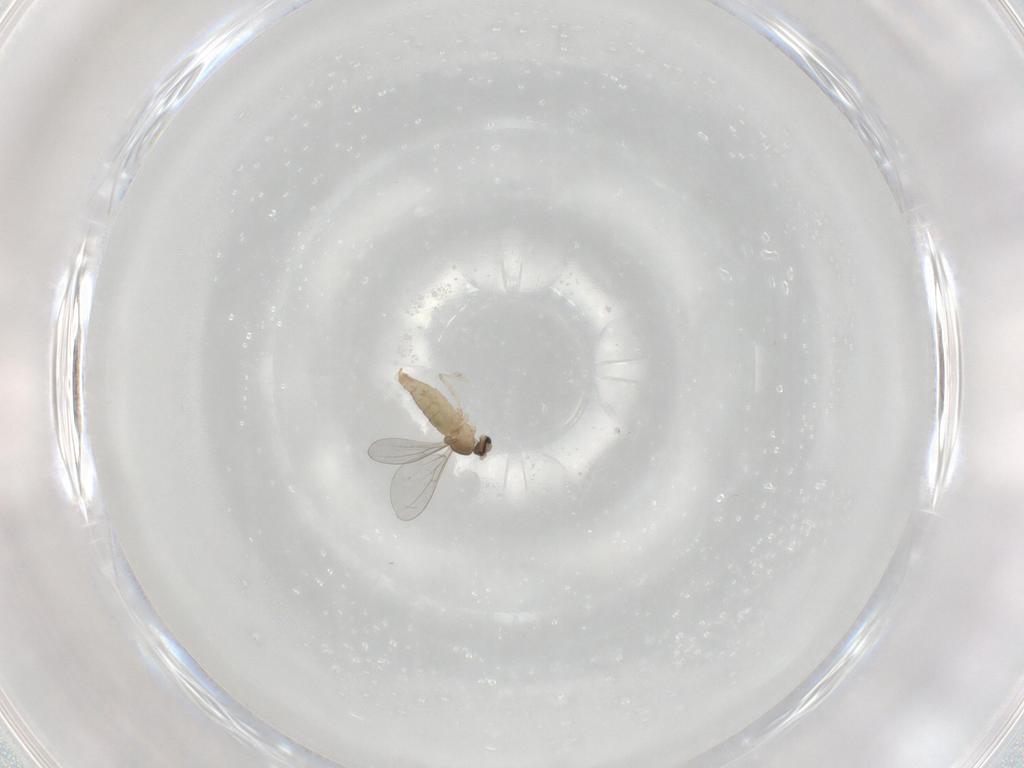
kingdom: Animalia
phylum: Arthropoda
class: Insecta
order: Diptera
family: Cecidomyiidae
